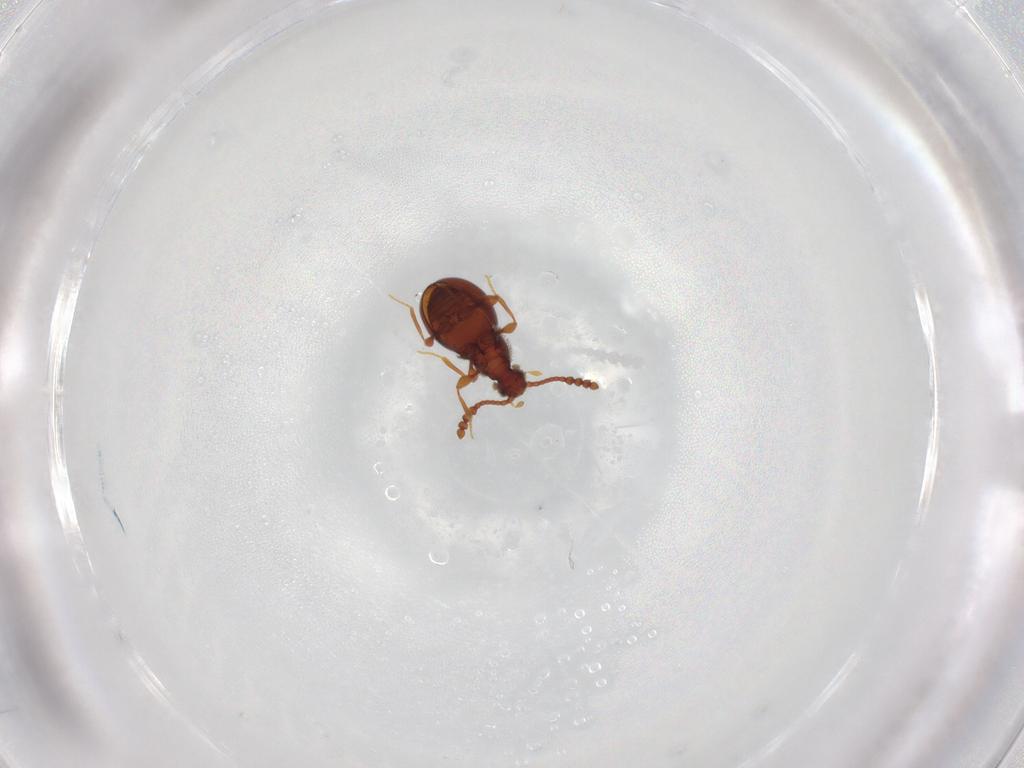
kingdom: Animalia
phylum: Arthropoda
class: Insecta
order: Coleoptera
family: Staphylinidae
